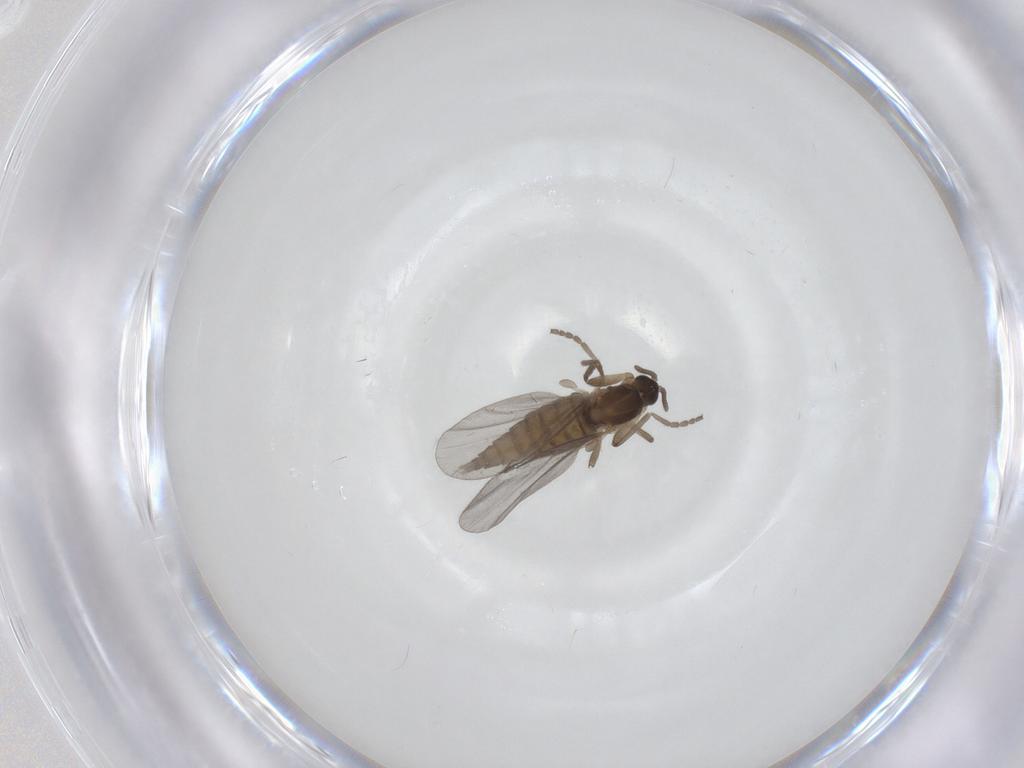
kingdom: Animalia
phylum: Arthropoda
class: Insecta
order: Diptera
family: Cecidomyiidae
